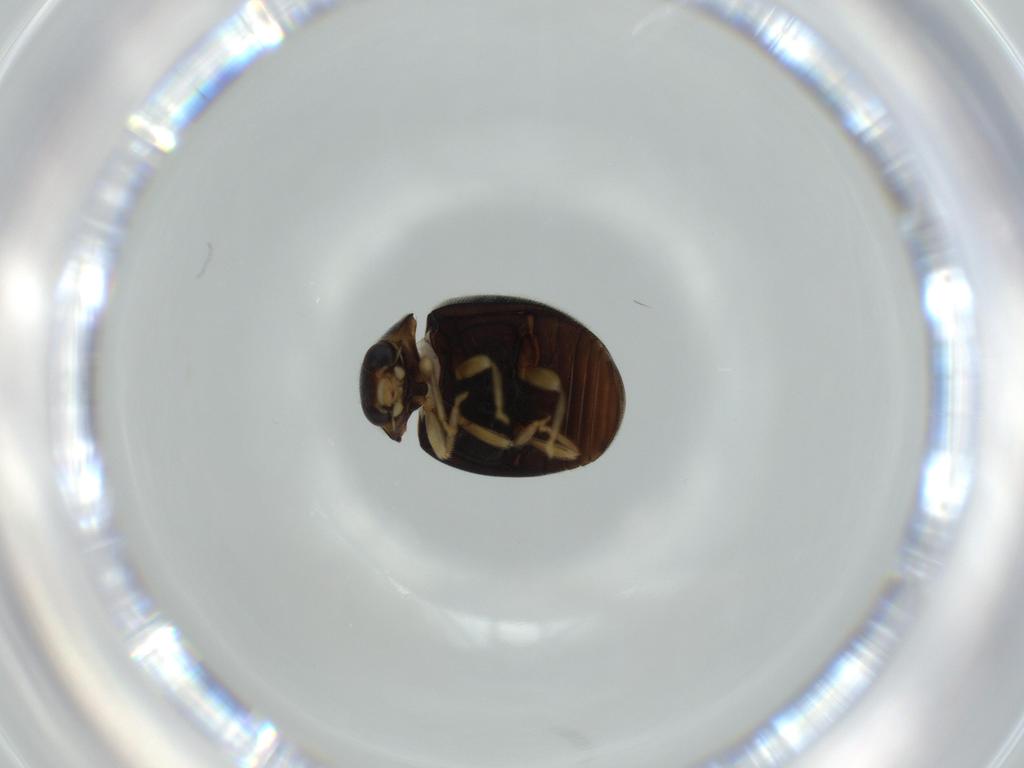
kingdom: Animalia
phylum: Arthropoda
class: Insecta
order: Coleoptera
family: Coccinellidae
